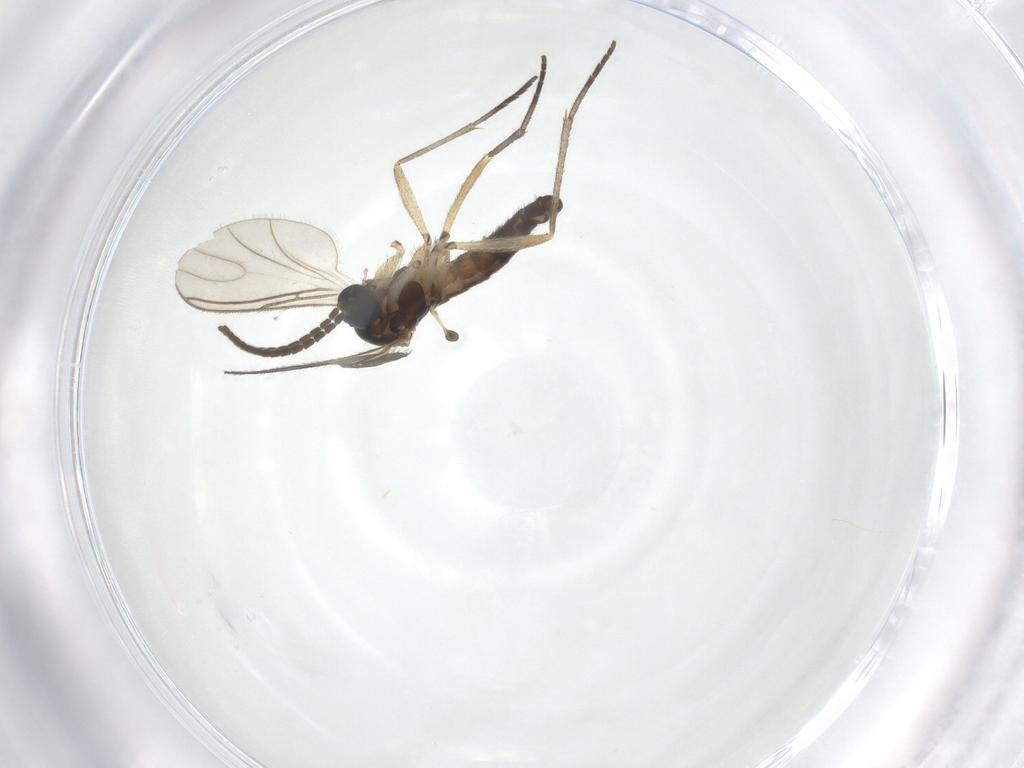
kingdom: Animalia
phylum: Arthropoda
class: Insecta
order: Diptera
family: Sciaridae
